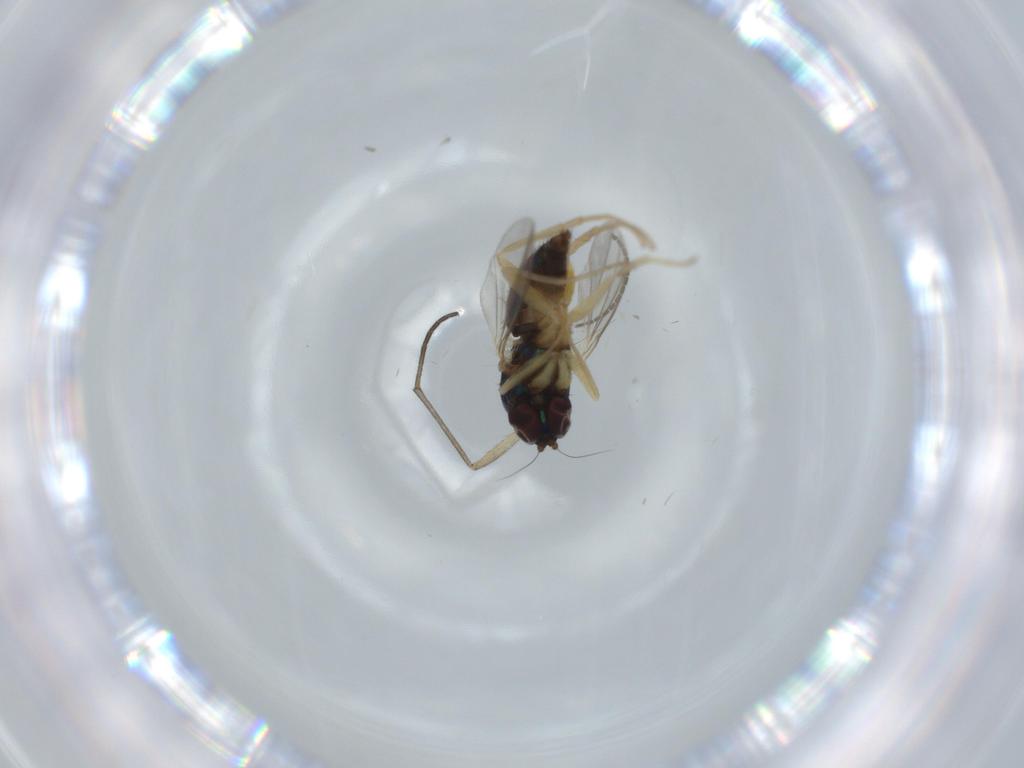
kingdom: Animalia
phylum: Arthropoda
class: Insecta
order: Diptera
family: Dolichopodidae
